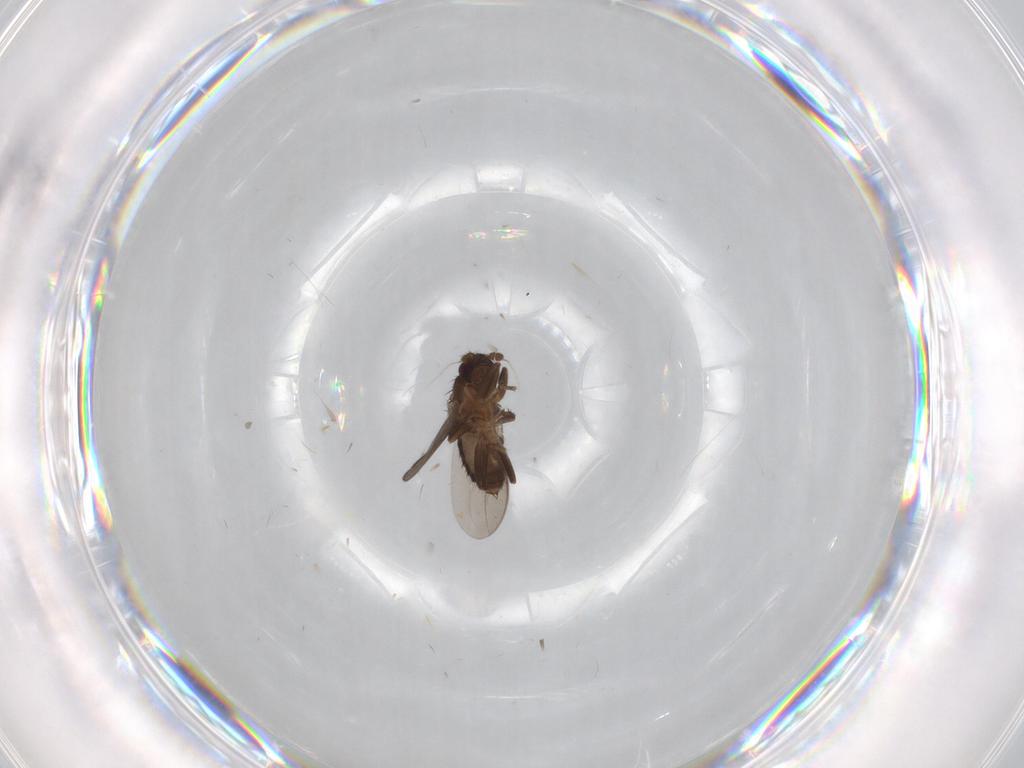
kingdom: Animalia
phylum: Arthropoda
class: Insecta
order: Diptera
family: Sphaeroceridae
